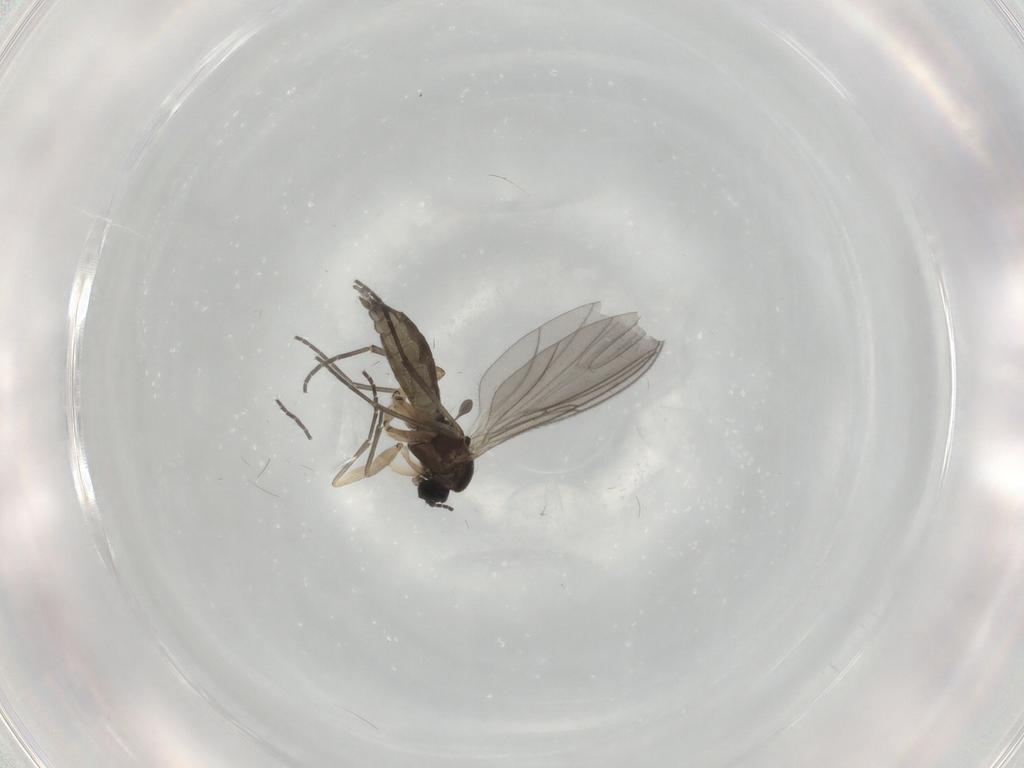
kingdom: Animalia
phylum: Arthropoda
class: Insecta
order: Diptera
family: Sciaridae
